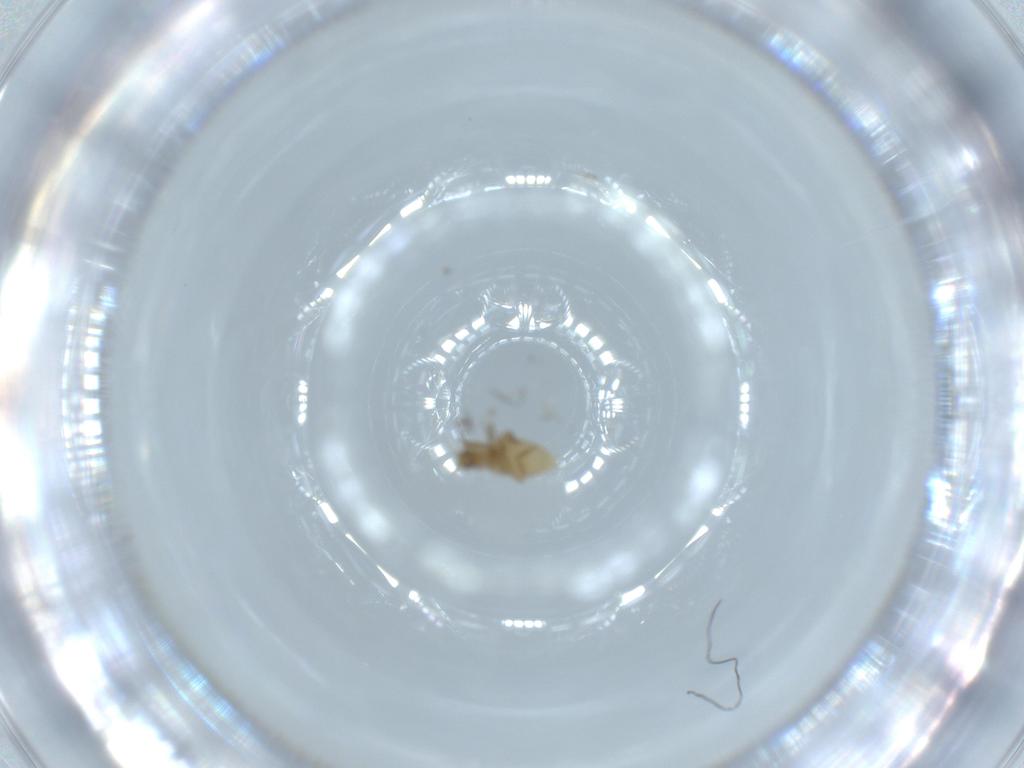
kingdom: Animalia
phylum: Arthropoda
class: Insecta
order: Diptera
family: Phoridae
